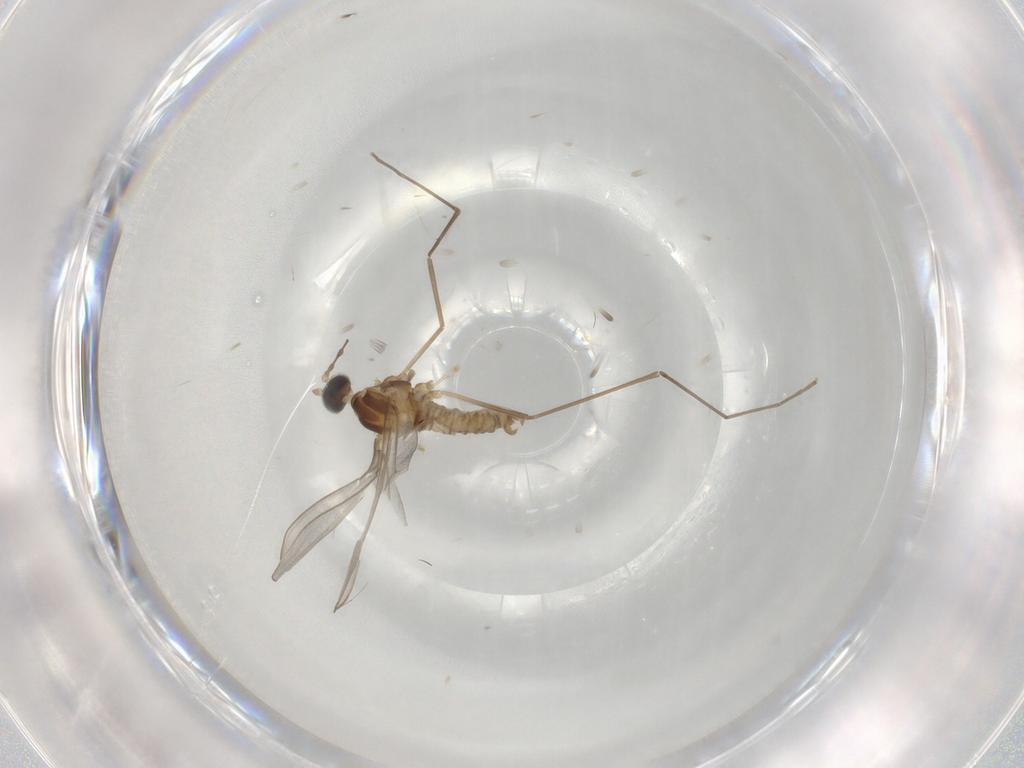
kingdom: Animalia
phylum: Arthropoda
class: Insecta
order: Diptera
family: Cecidomyiidae
